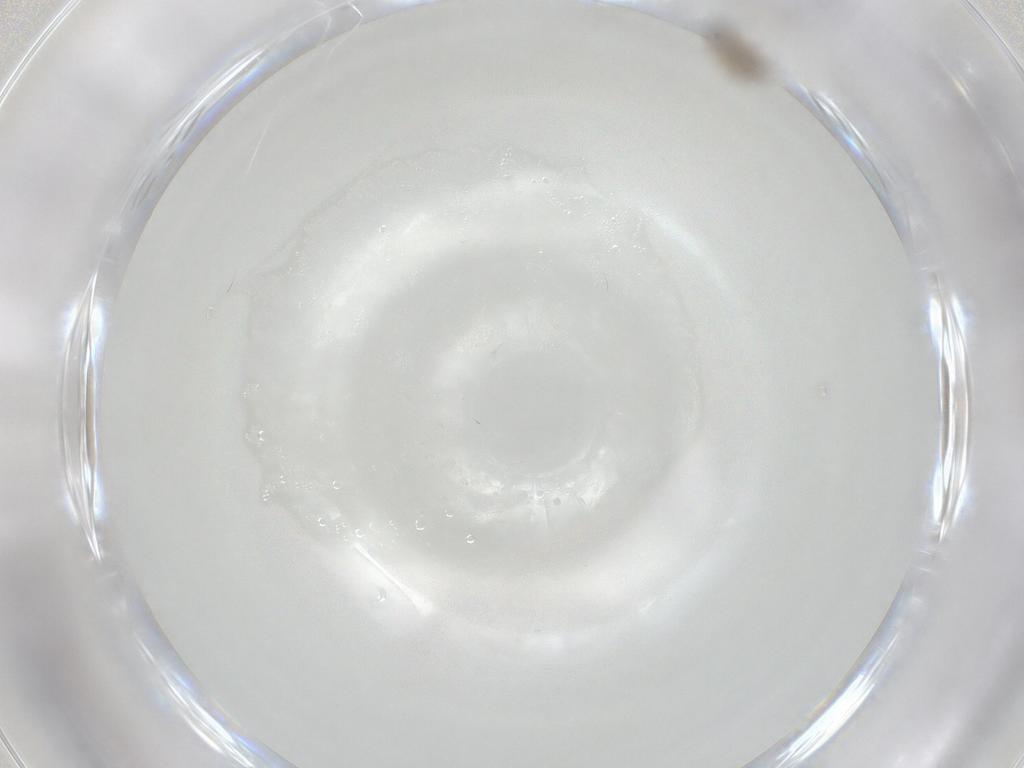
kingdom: Animalia
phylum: Arthropoda
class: Insecta
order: Diptera
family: Psychodidae
